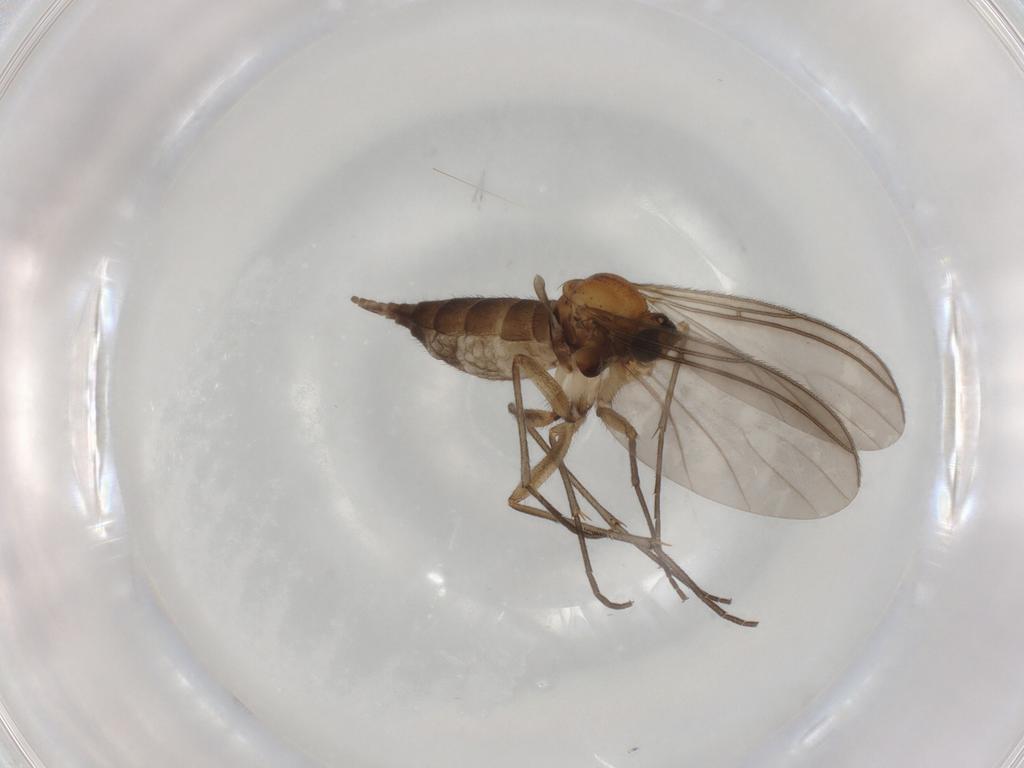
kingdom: Animalia
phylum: Arthropoda
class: Insecta
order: Diptera
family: Sciaridae
